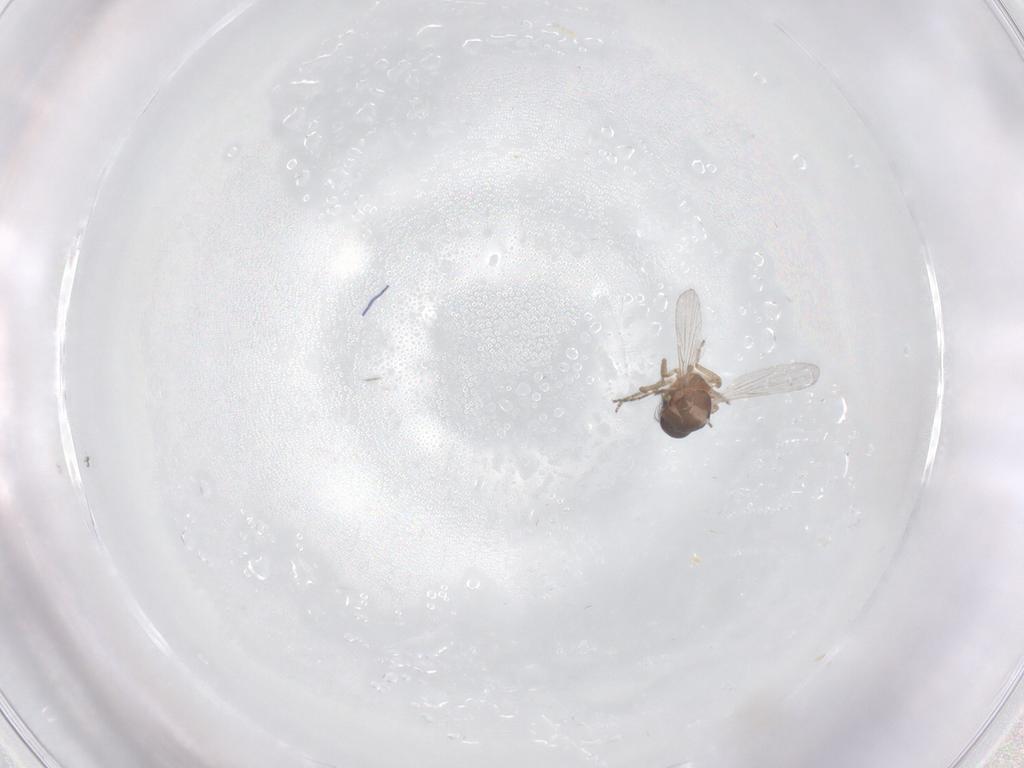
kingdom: Animalia
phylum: Arthropoda
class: Insecta
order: Diptera
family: Ceratopogonidae
